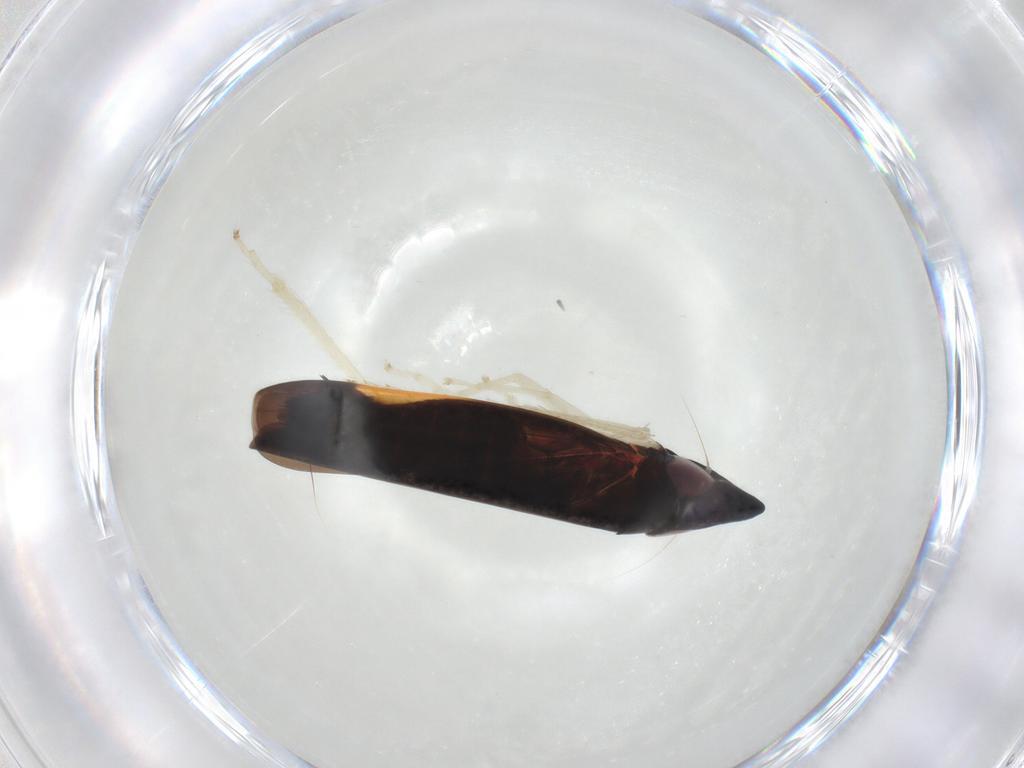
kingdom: Animalia
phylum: Arthropoda
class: Insecta
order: Hemiptera
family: Cicadellidae
